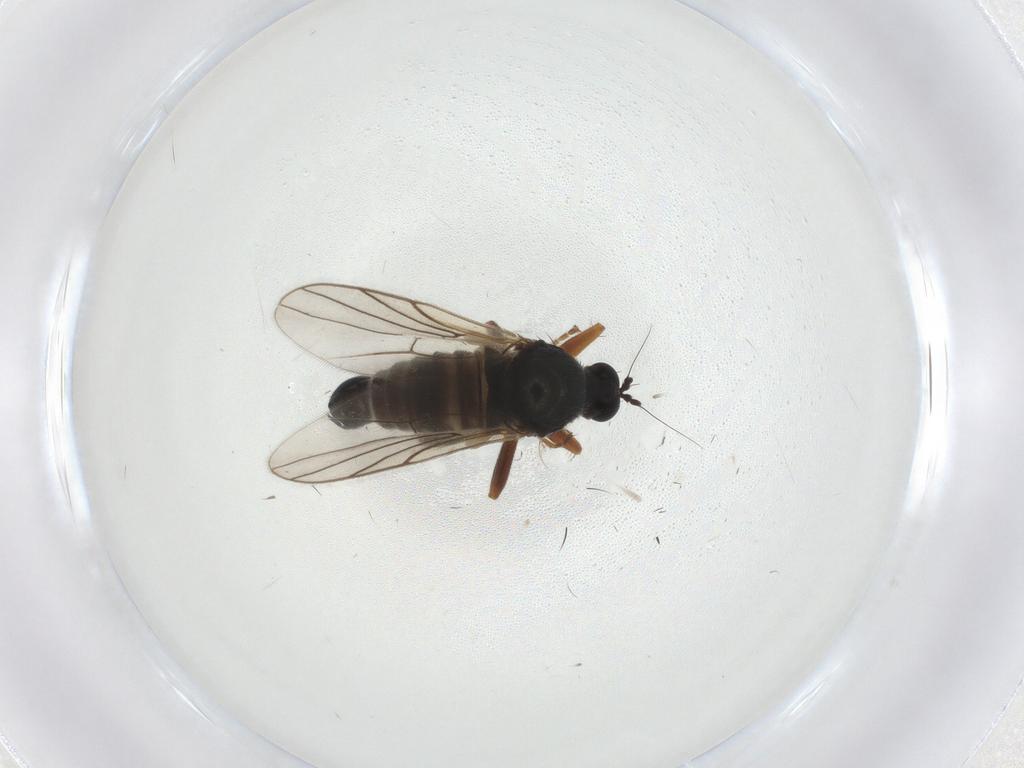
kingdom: Animalia
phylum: Arthropoda
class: Insecta
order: Diptera
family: Hybotidae
